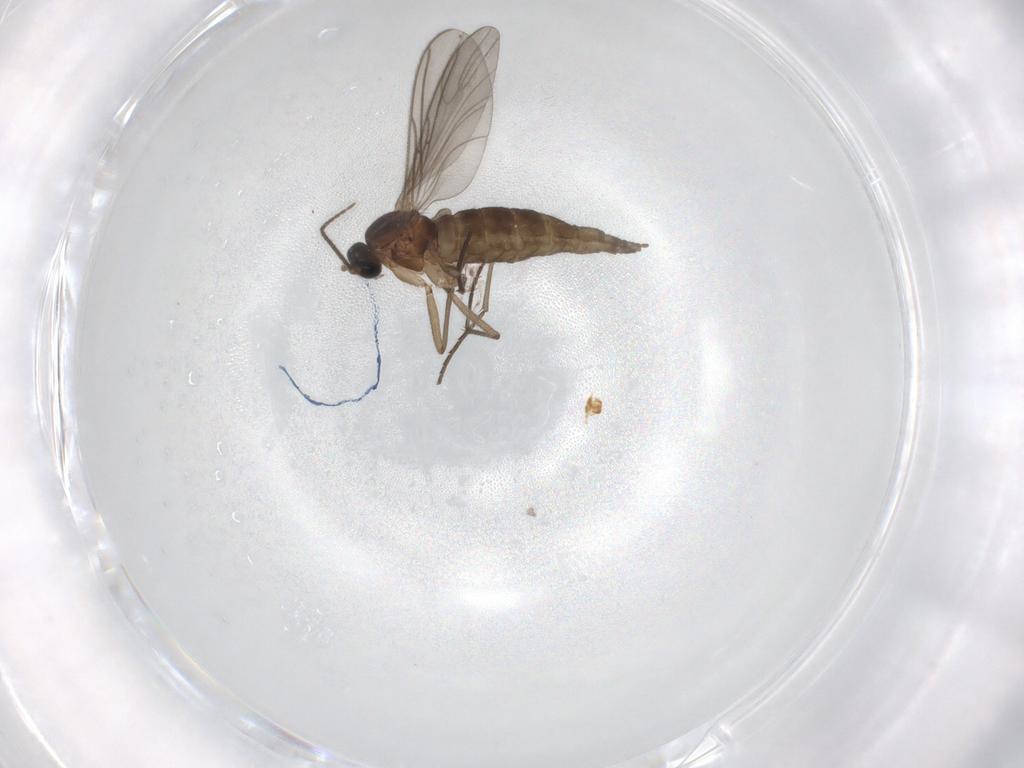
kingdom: Animalia
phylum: Arthropoda
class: Insecta
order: Diptera
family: Sciaridae
